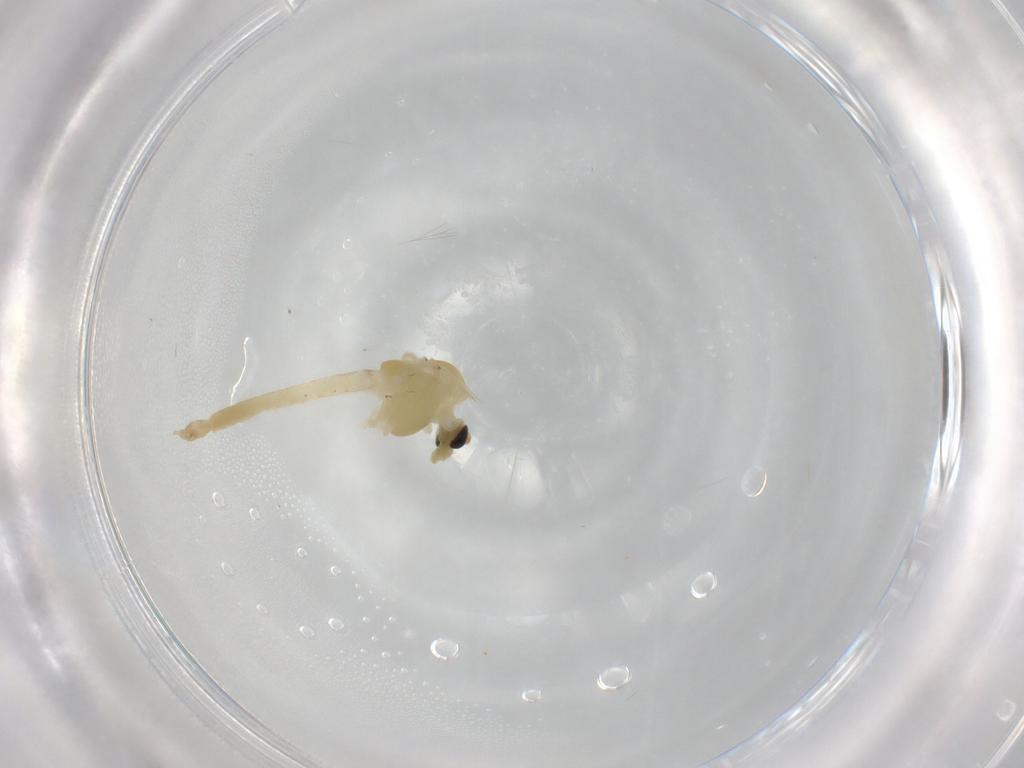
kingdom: Animalia
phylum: Arthropoda
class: Insecta
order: Diptera
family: Chironomidae
